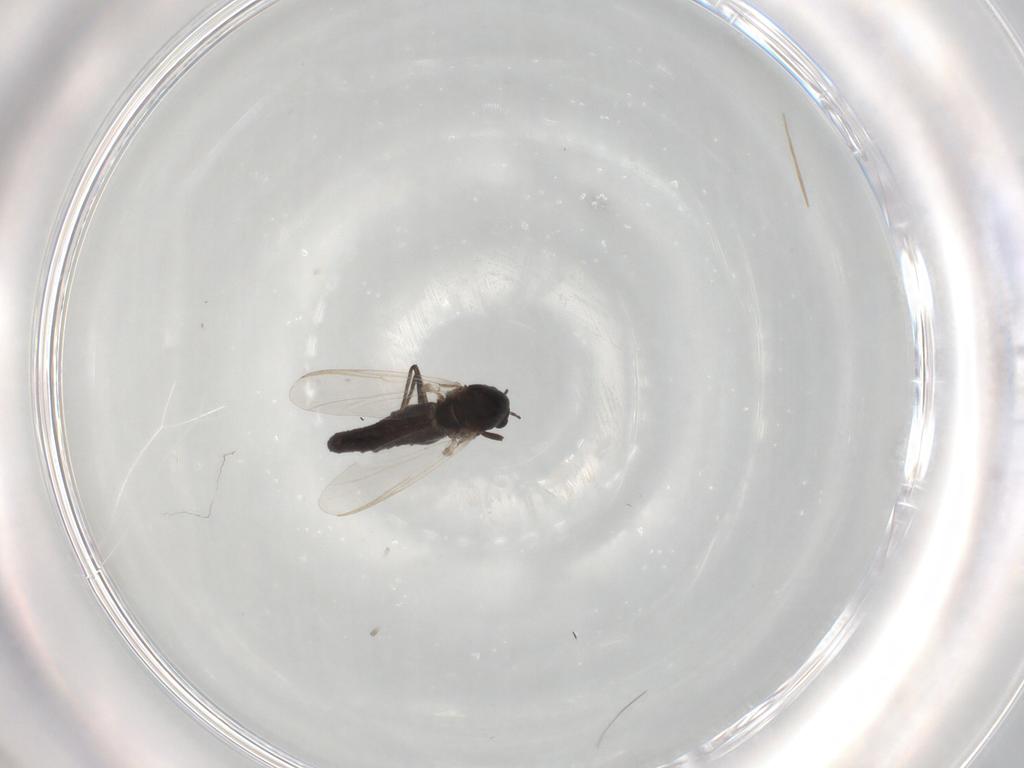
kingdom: Animalia
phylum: Arthropoda
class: Insecta
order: Diptera
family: Chironomidae
